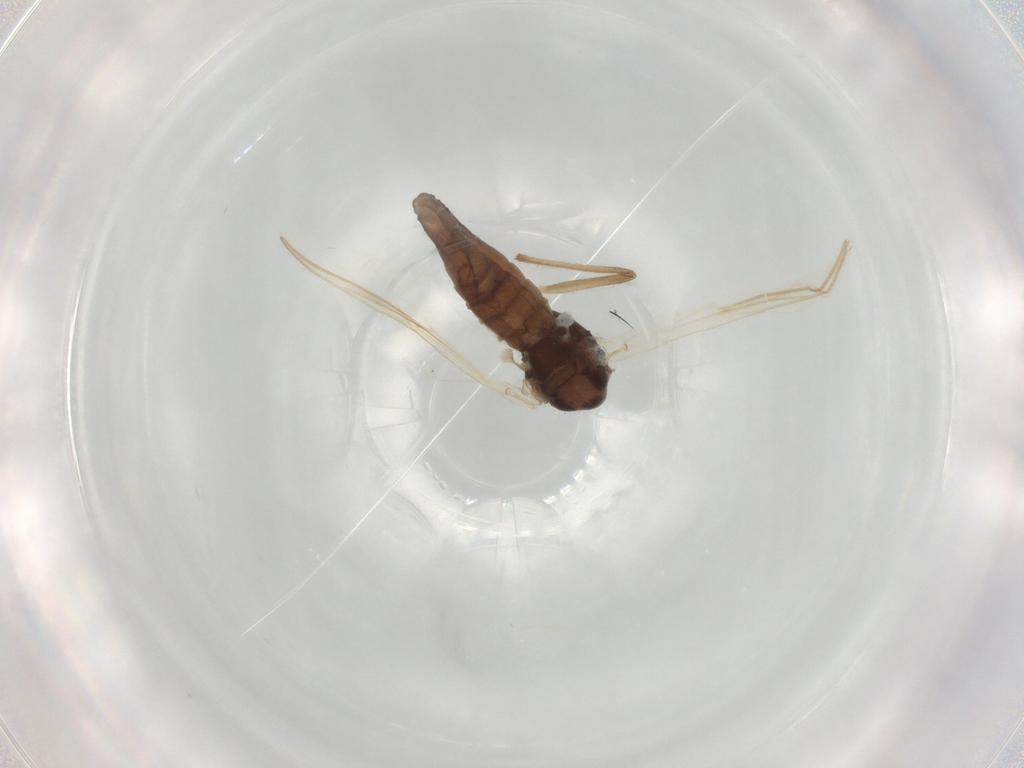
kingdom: Animalia
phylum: Arthropoda
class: Insecta
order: Diptera
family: Chironomidae
